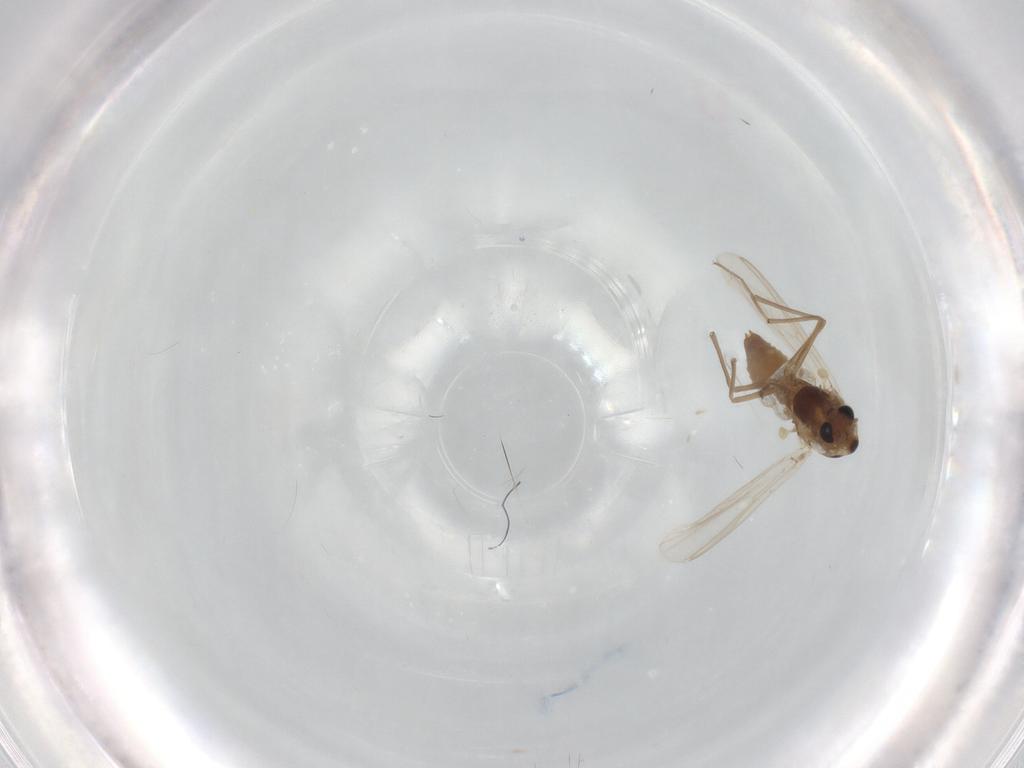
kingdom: Animalia
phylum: Arthropoda
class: Insecta
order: Diptera
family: Chironomidae
